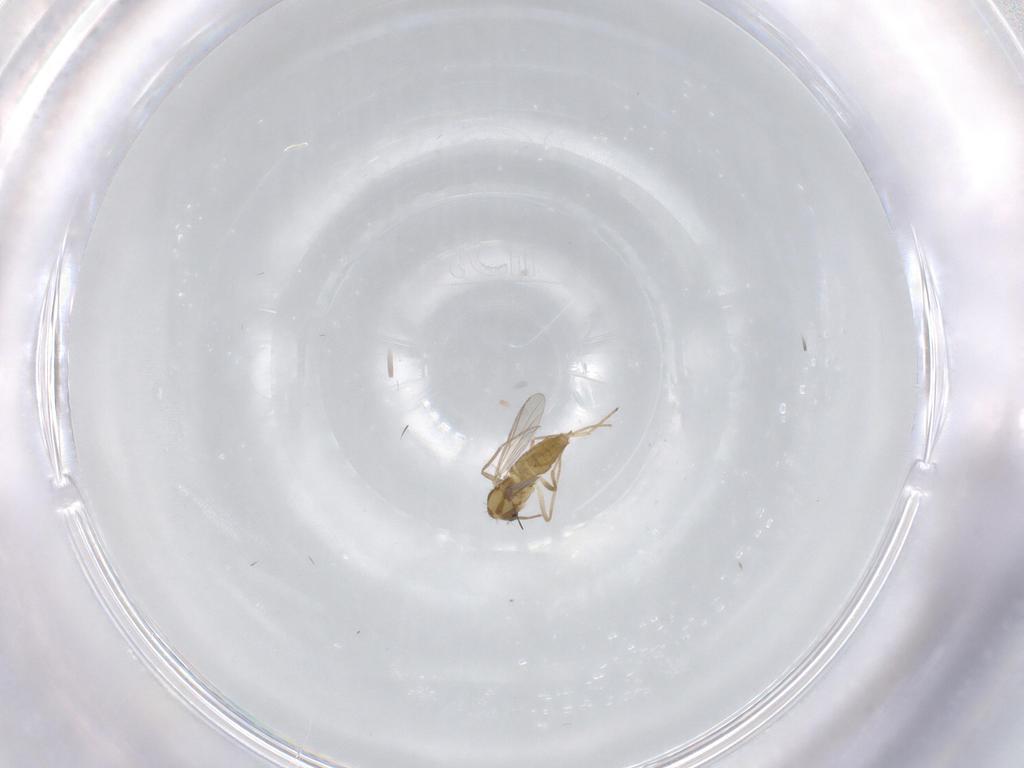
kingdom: Animalia
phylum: Arthropoda
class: Insecta
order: Diptera
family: Chironomidae
